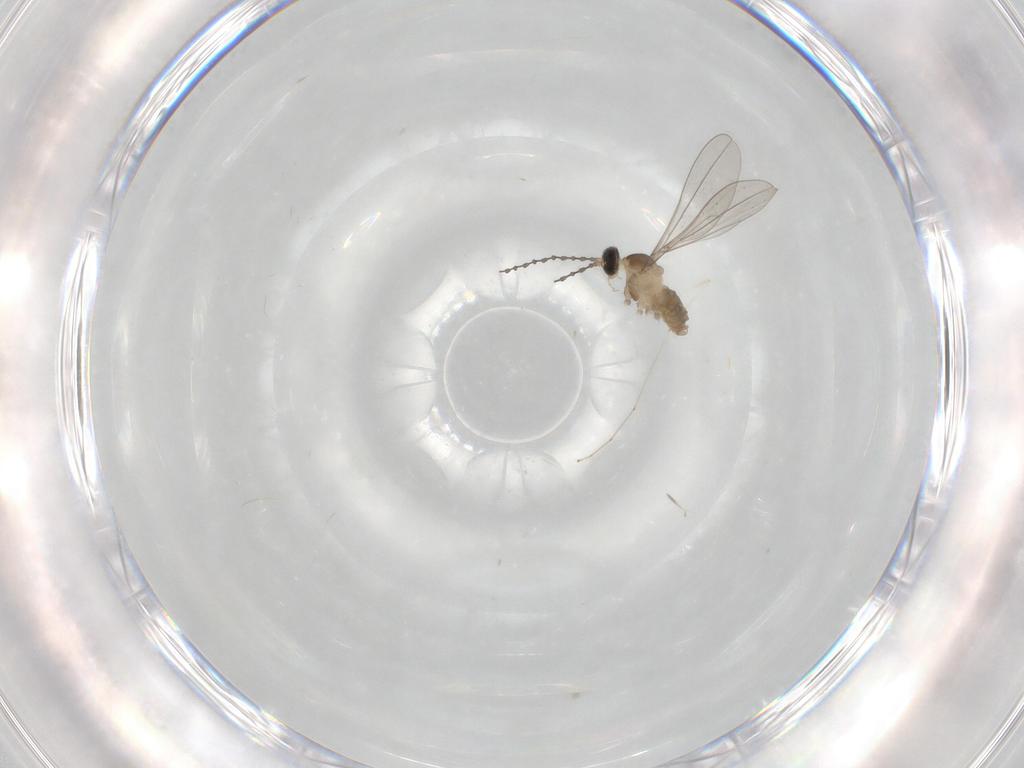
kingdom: Animalia
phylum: Arthropoda
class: Insecta
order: Diptera
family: Cecidomyiidae
